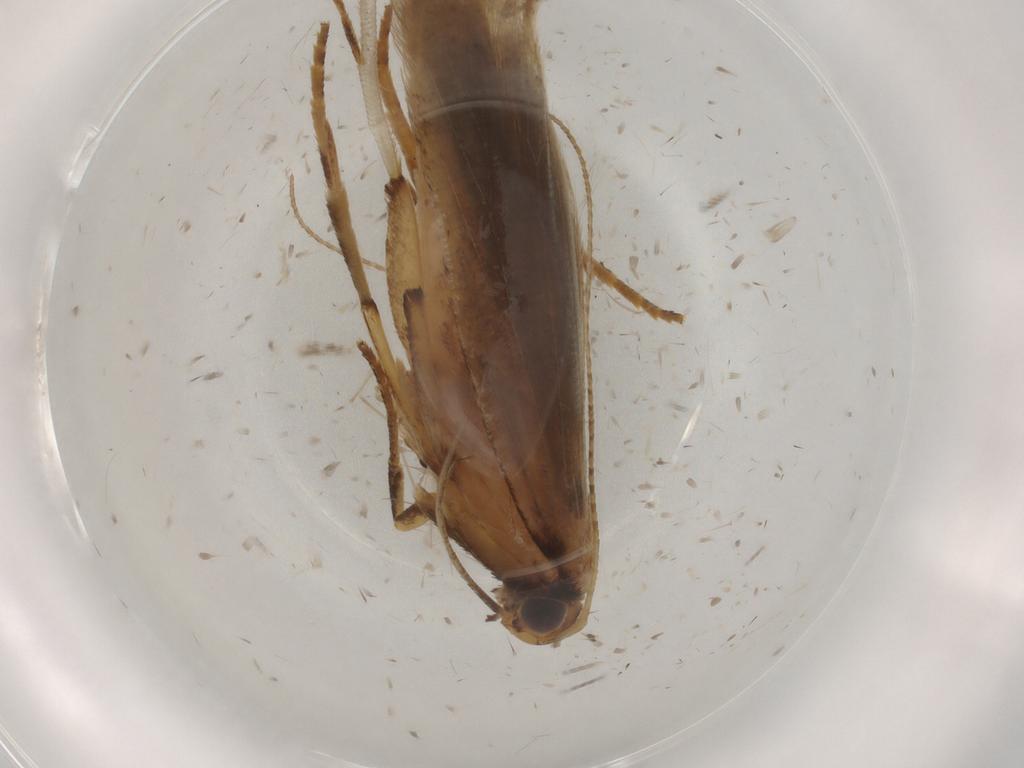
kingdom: Animalia
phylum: Arthropoda
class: Insecta
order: Lepidoptera
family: Gelechiidae
